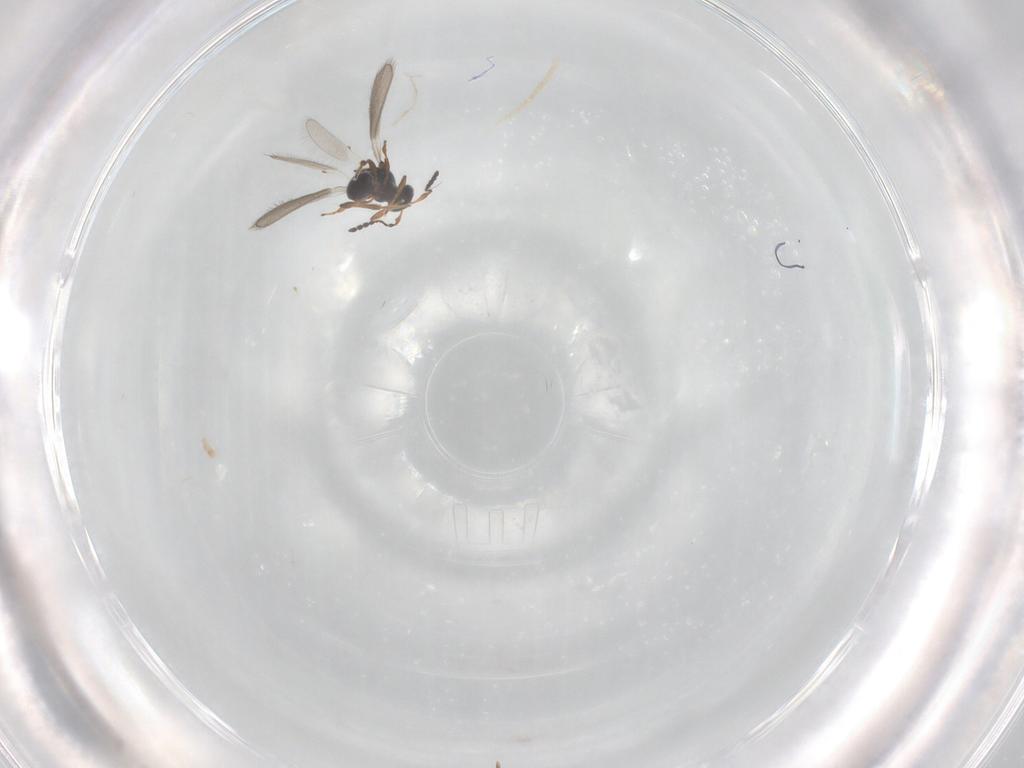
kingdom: Animalia
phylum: Arthropoda
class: Insecta
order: Hymenoptera
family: Platygastridae
